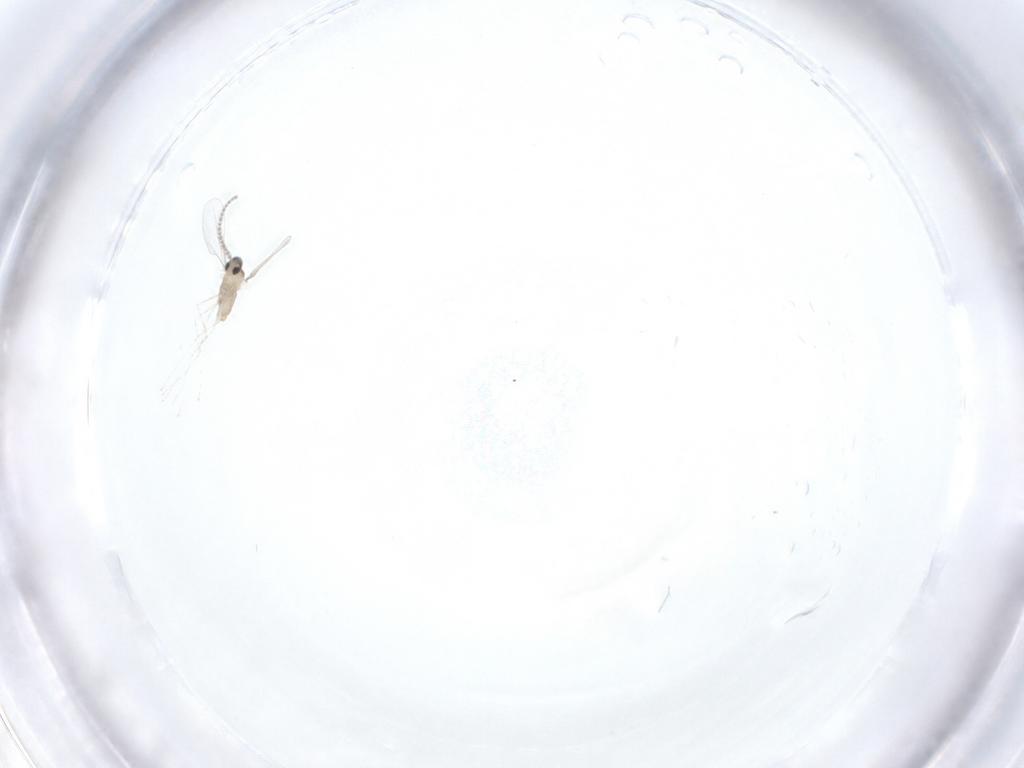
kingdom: Animalia
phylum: Arthropoda
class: Insecta
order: Diptera
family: Cecidomyiidae
